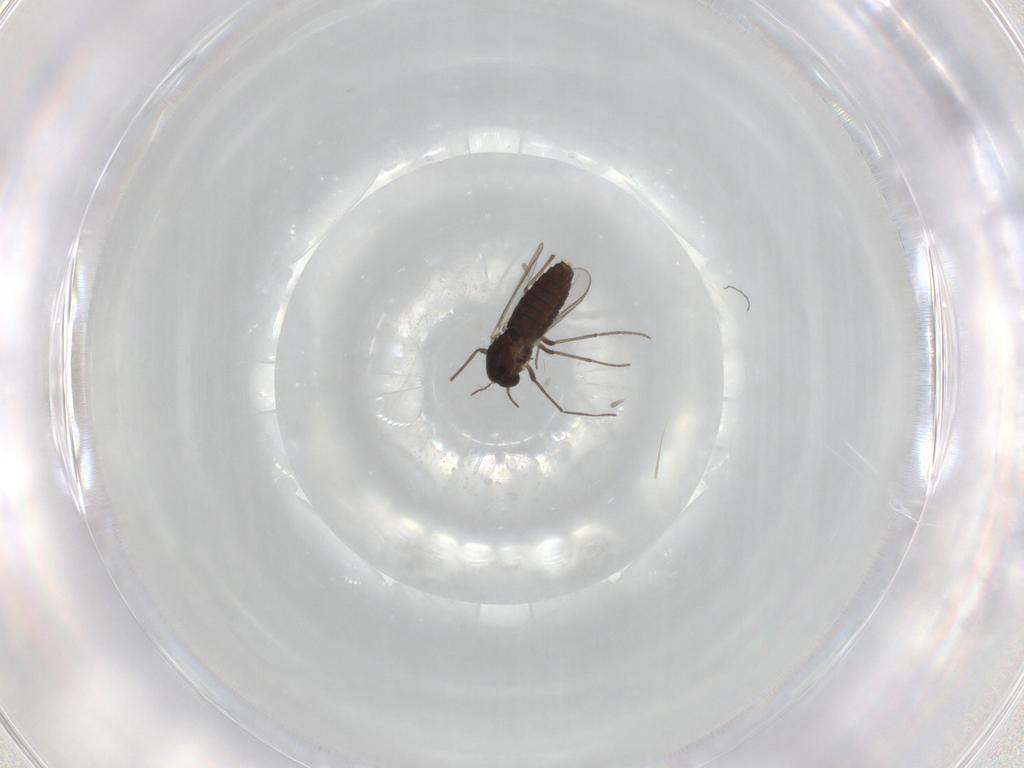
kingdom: Animalia
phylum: Arthropoda
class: Insecta
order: Diptera
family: Chironomidae
